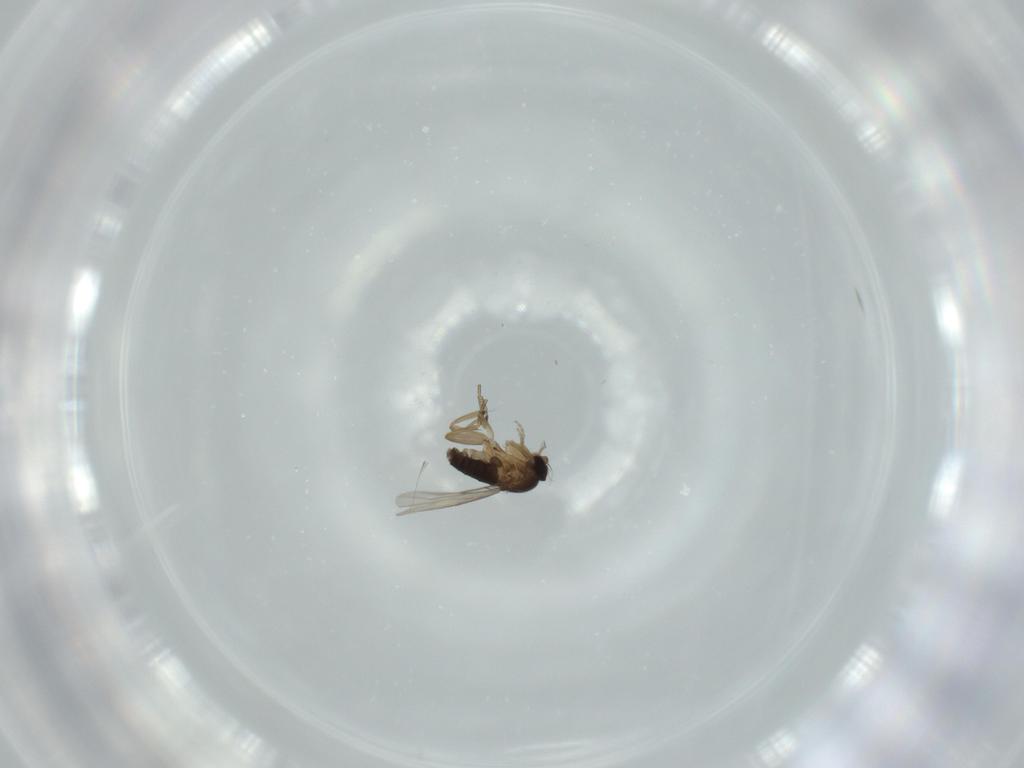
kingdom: Animalia
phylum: Arthropoda
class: Insecta
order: Diptera
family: Phoridae
